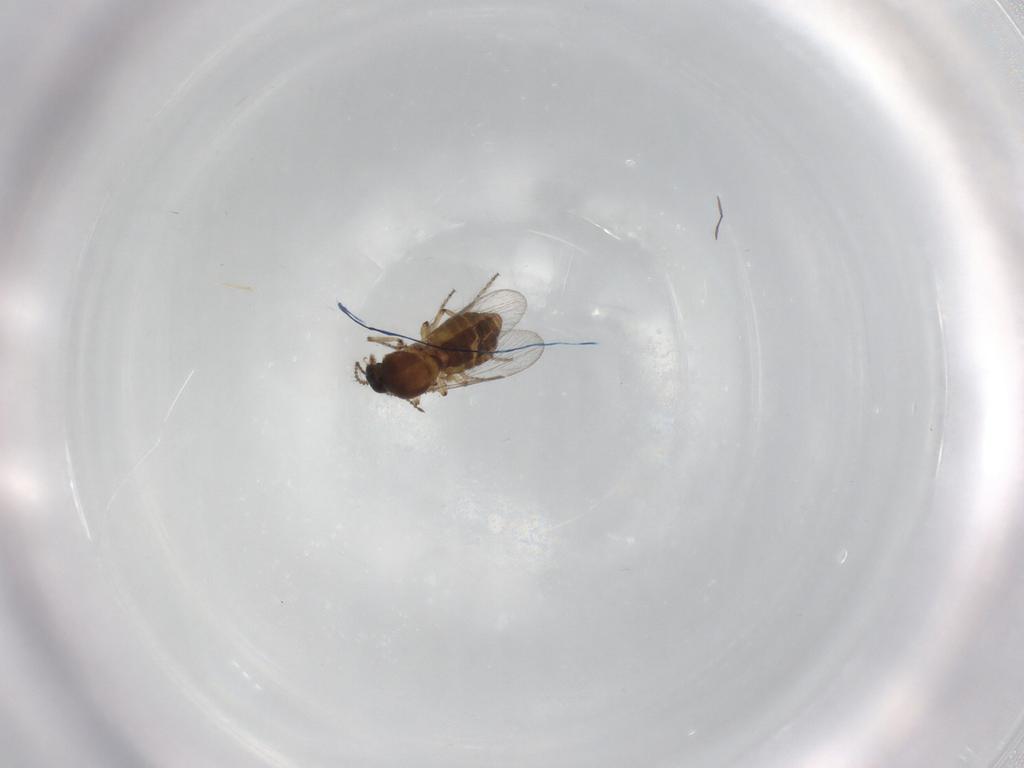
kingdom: Animalia
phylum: Arthropoda
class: Insecta
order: Diptera
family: Ceratopogonidae
